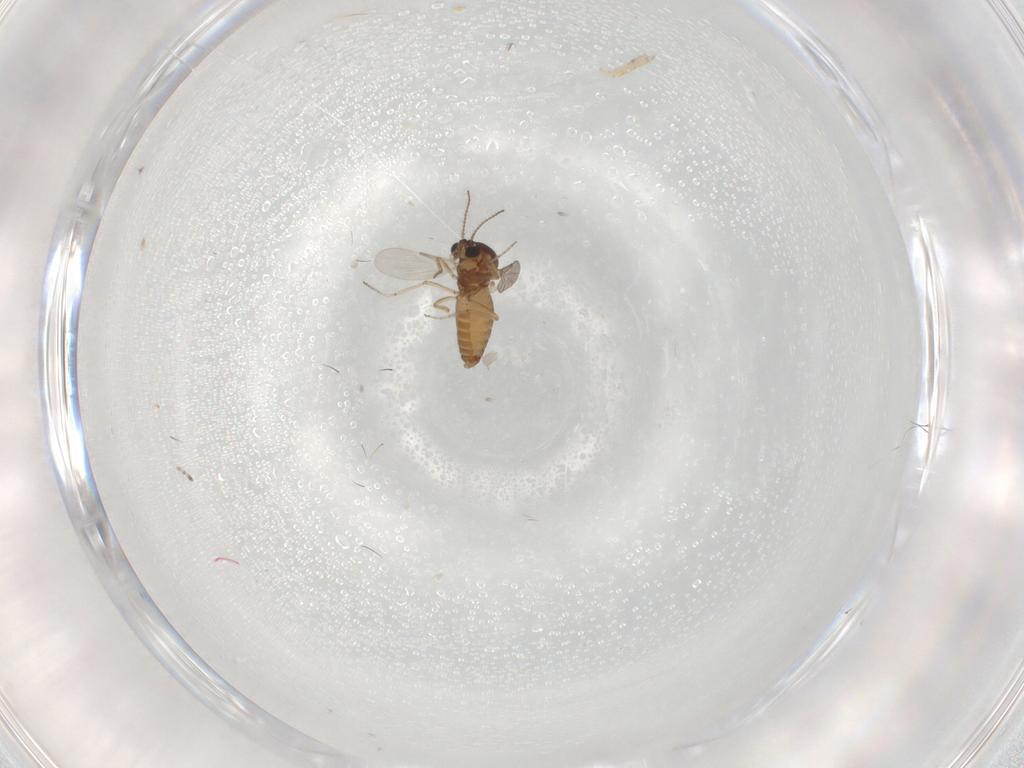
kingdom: Animalia
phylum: Arthropoda
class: Insecta
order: Diptera
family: Ceratopogonidae
